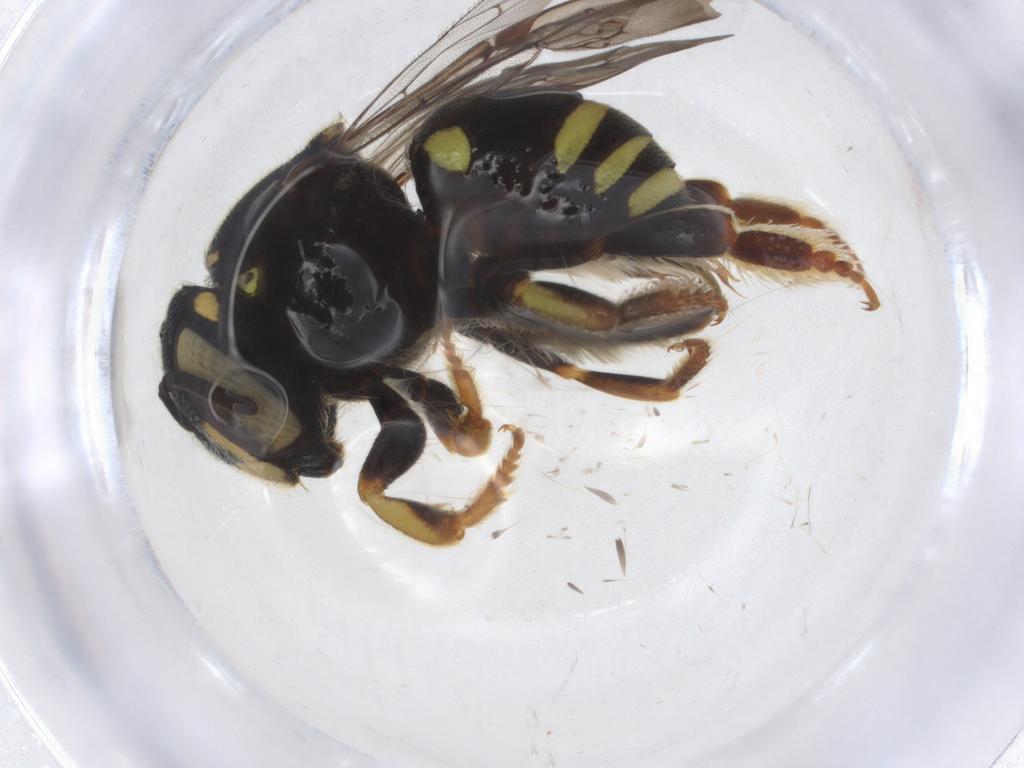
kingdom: Animalia
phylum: Arthropoda
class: Insecta
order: Hymenoptera
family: Megachilidae
